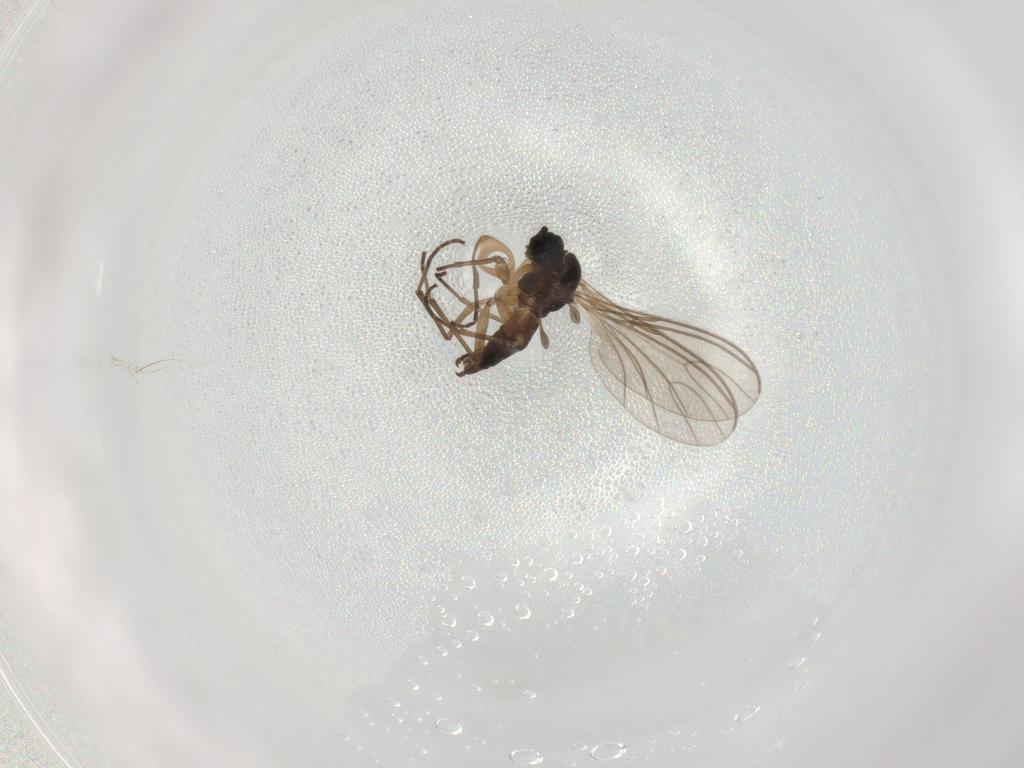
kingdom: Animalia
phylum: Arthropoda
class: Insecta
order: Diptera
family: Sciaridae
